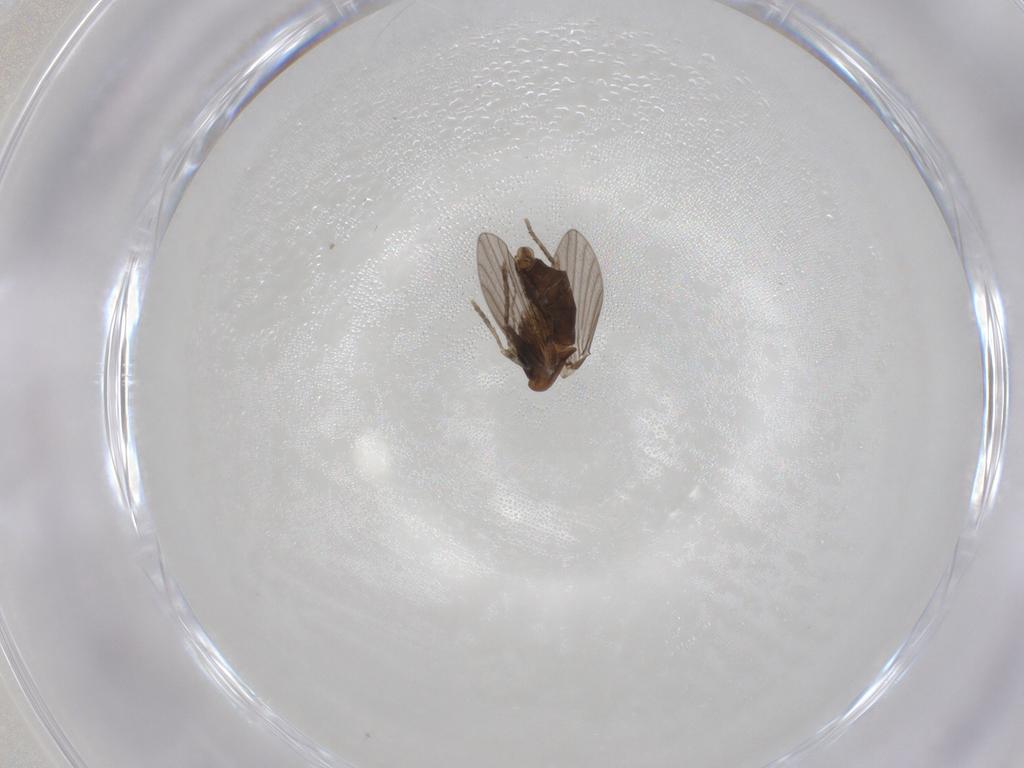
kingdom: Animalia
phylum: Arthropoda
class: Insecta
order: Diptera
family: Psychodidae
